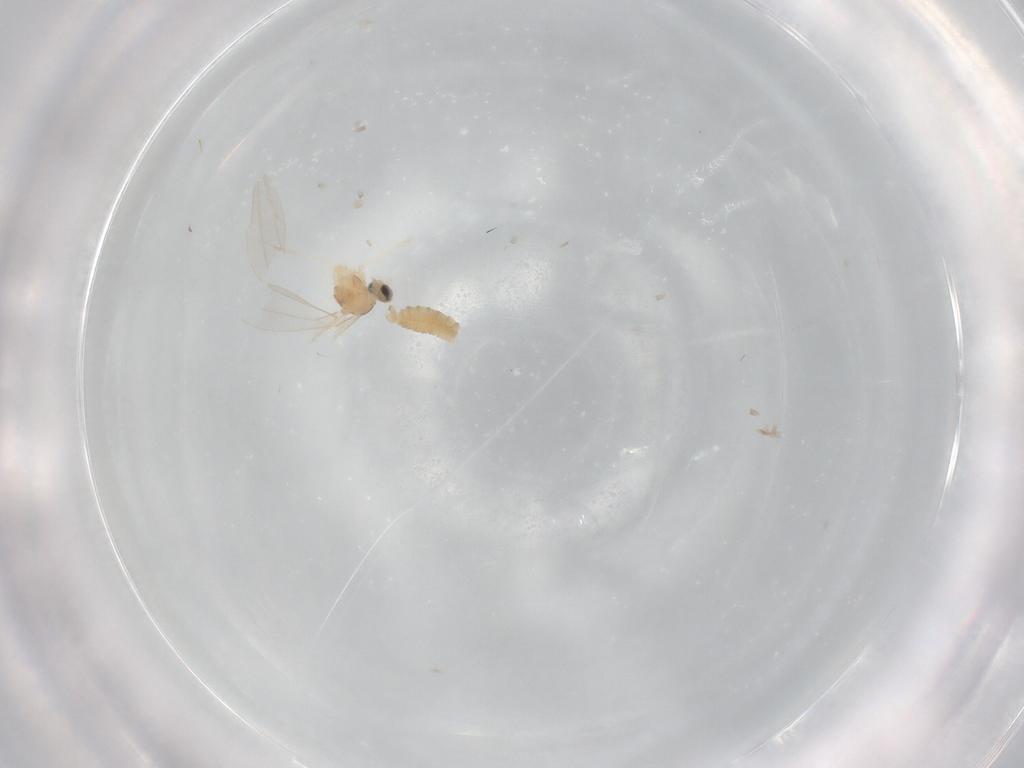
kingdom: Animalia
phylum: Arthropoda
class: Insecta
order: Diptera
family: Cecidomyiidae
